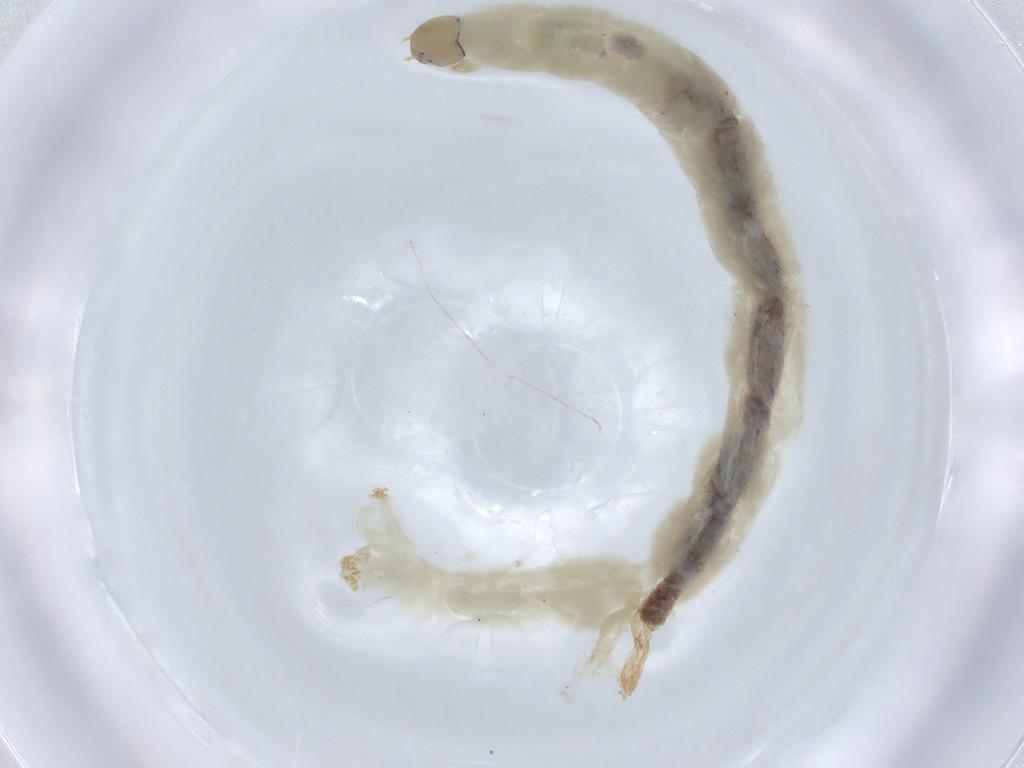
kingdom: Animalia
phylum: Arthropoda
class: Insecta
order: Diptera
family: Chironomidae
